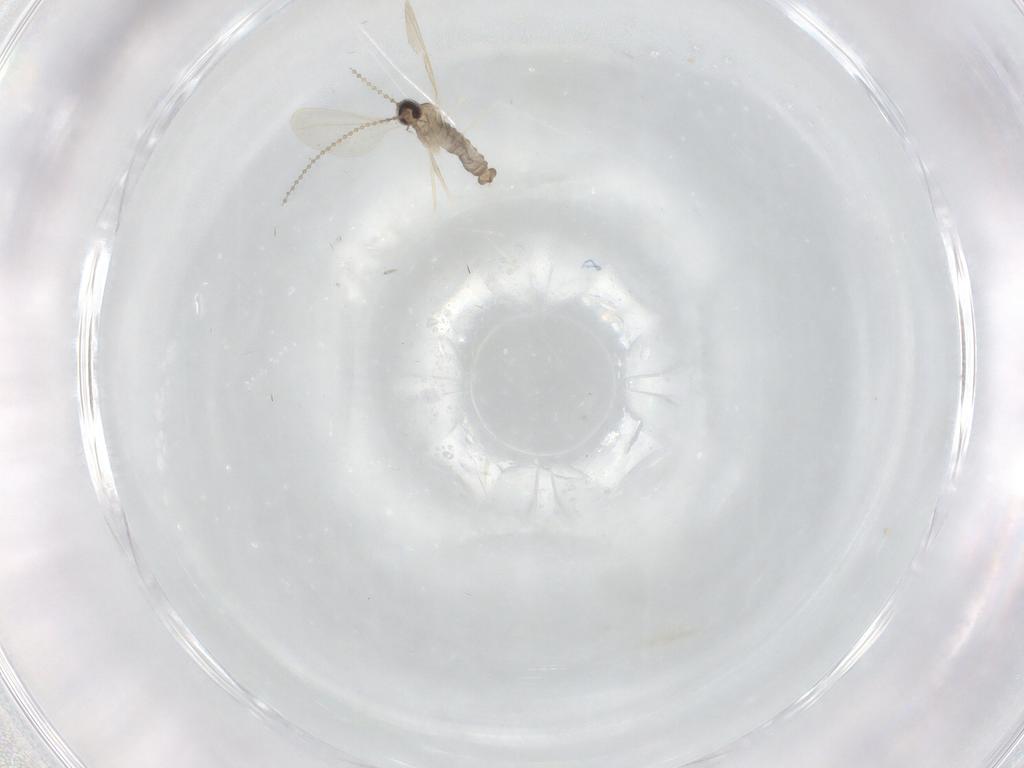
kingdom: Animalia
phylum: Arthropoda
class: Insecta
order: Diptera
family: Cecidomyiidae
